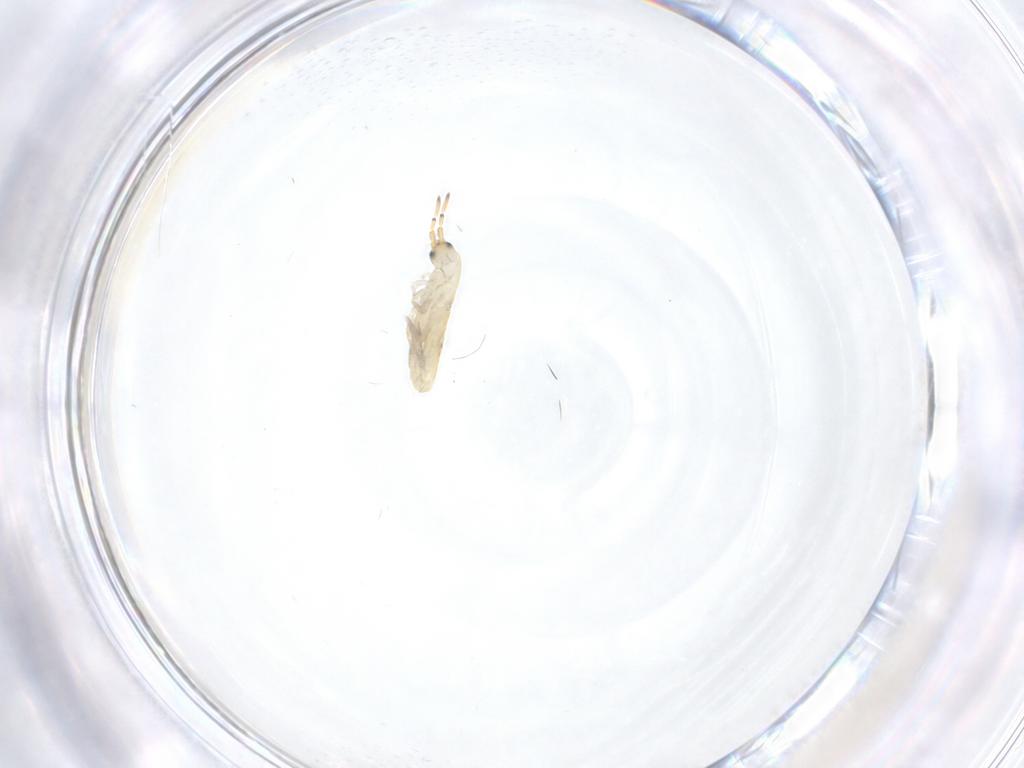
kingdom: Animalia
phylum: Arthropoda
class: Collembola
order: Entomobryomorpha
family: Entomobryidae
